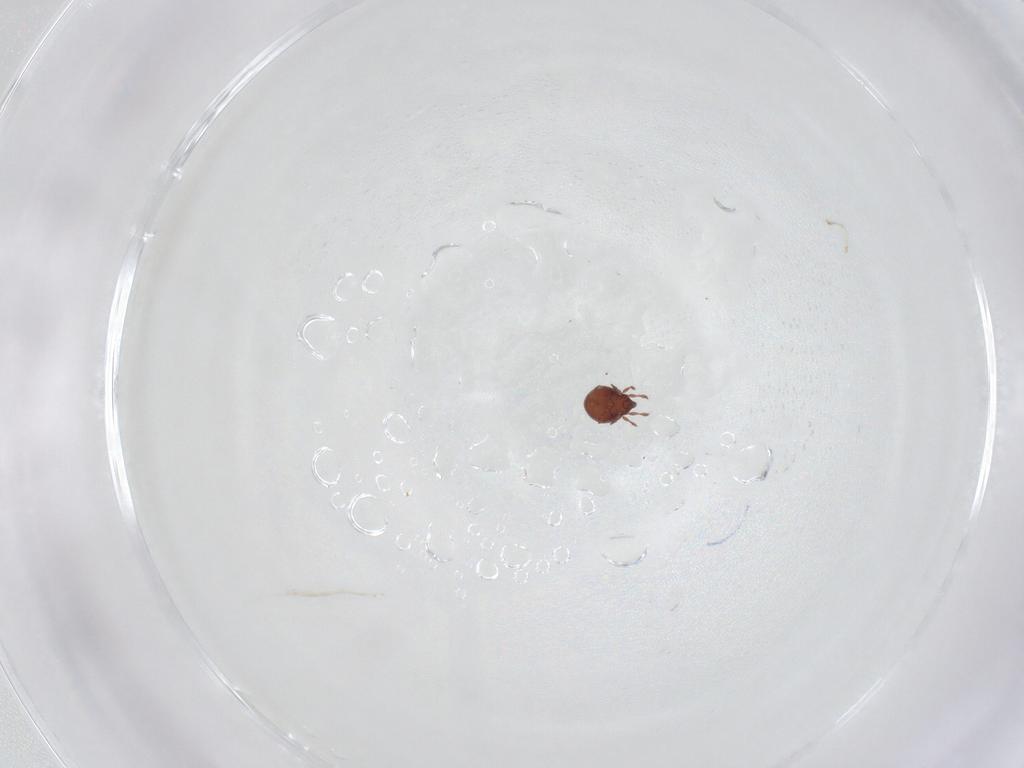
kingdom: Animalia
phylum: Arthropoda
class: Arachnida
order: Sarcoptiformes
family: Peloppiidae
